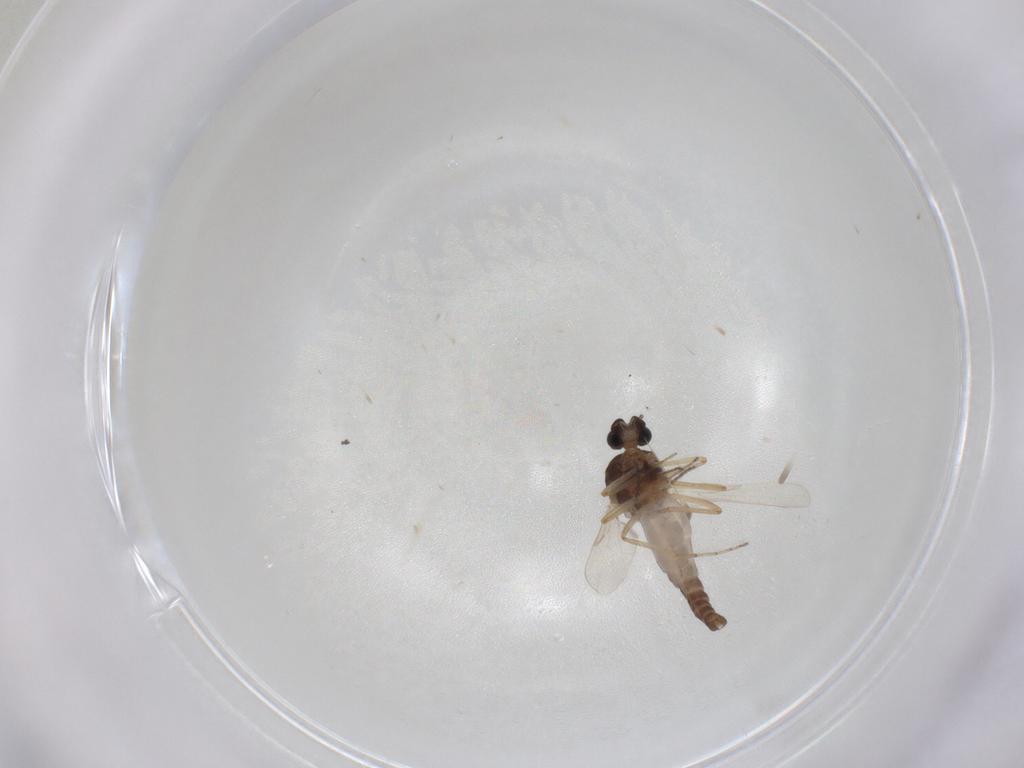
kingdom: Animalia
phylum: Arthropoda
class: Insecta
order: Diptera
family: Ceratopogonidae
